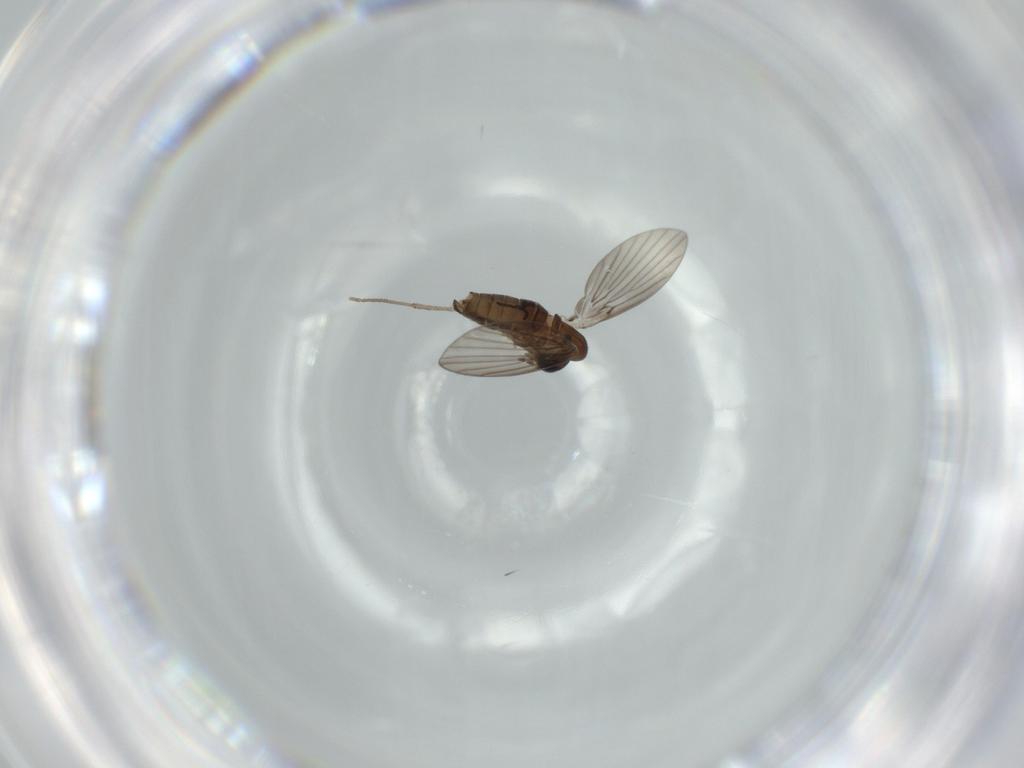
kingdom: Animalia
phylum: Arthropoda
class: Insecta
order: Diptera
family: Psychodidae
